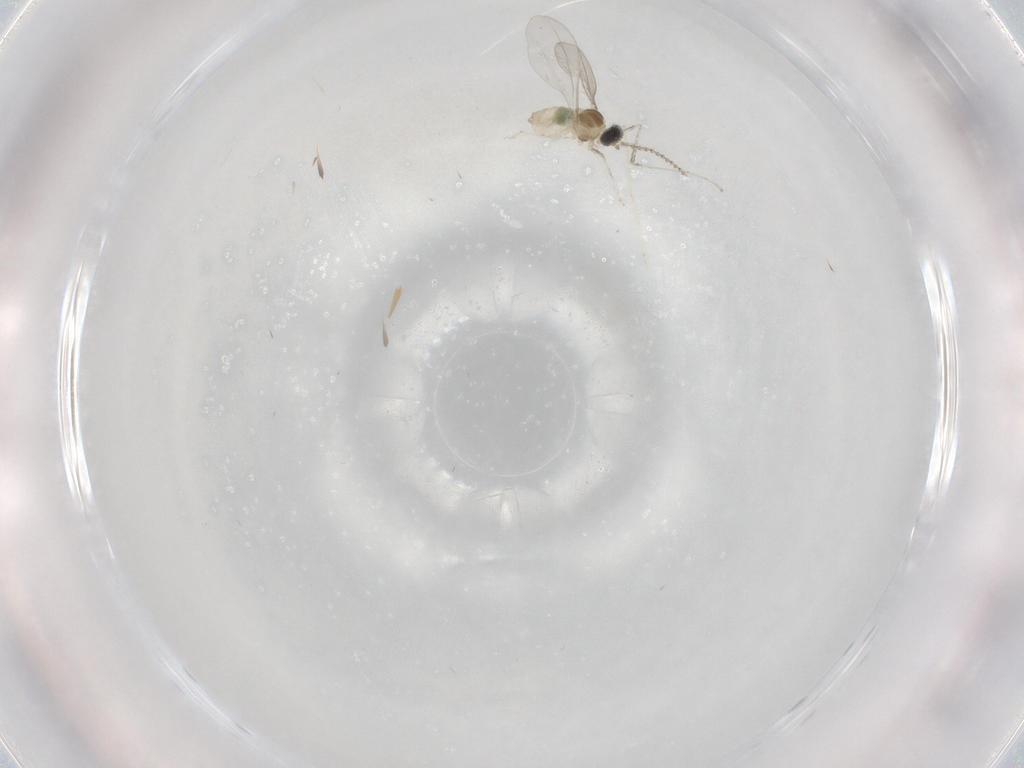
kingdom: Animalia
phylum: Arthropoda
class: Insecta
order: Diptera
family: Cecidomyiidae
